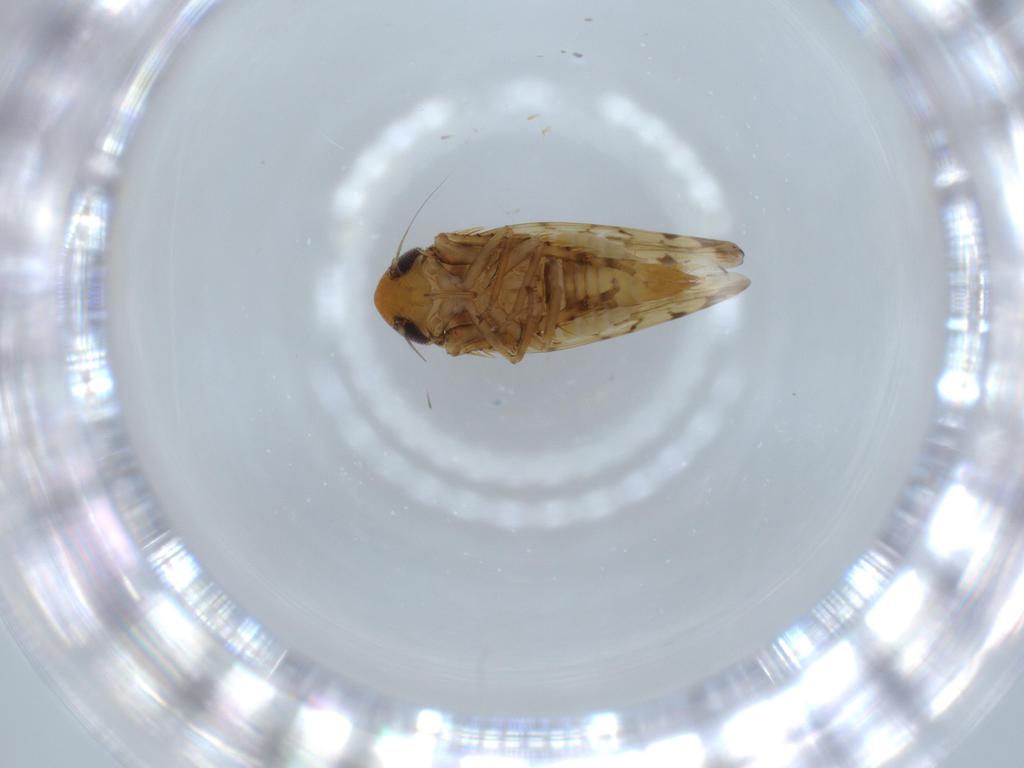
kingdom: Animalia
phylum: Arthropoda
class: Insecta
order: Hemiptera
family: Cicadellidae
